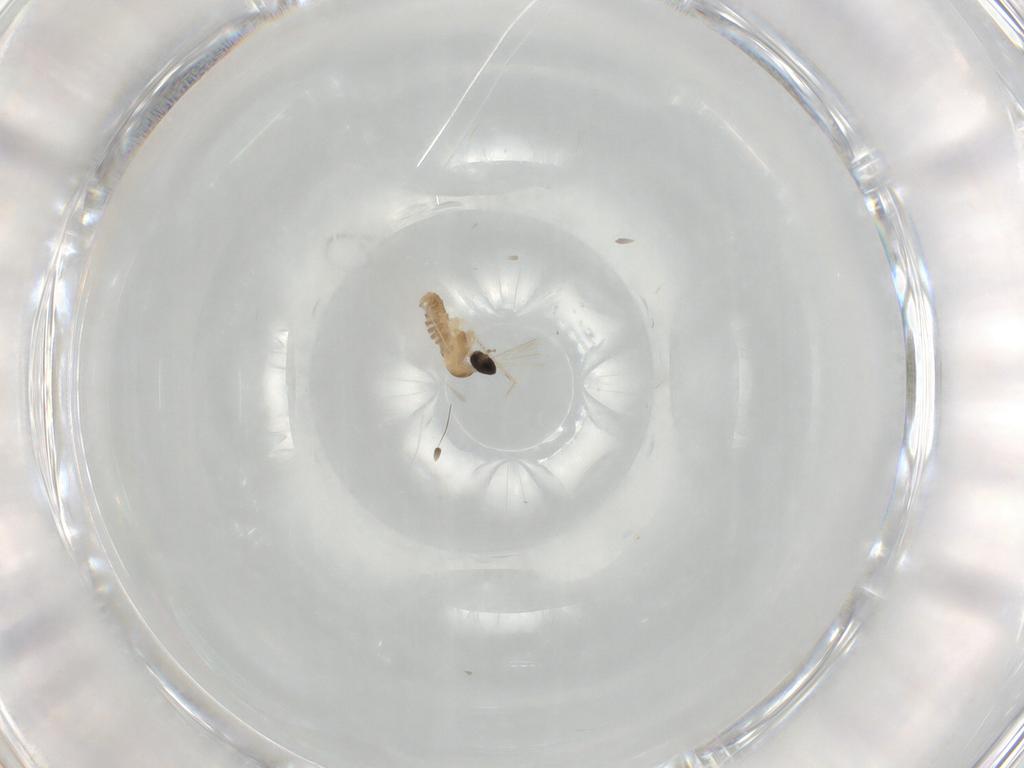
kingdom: Animalia
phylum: Arthropoda
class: Insecta
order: Diptera
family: Cecidomyiidae
